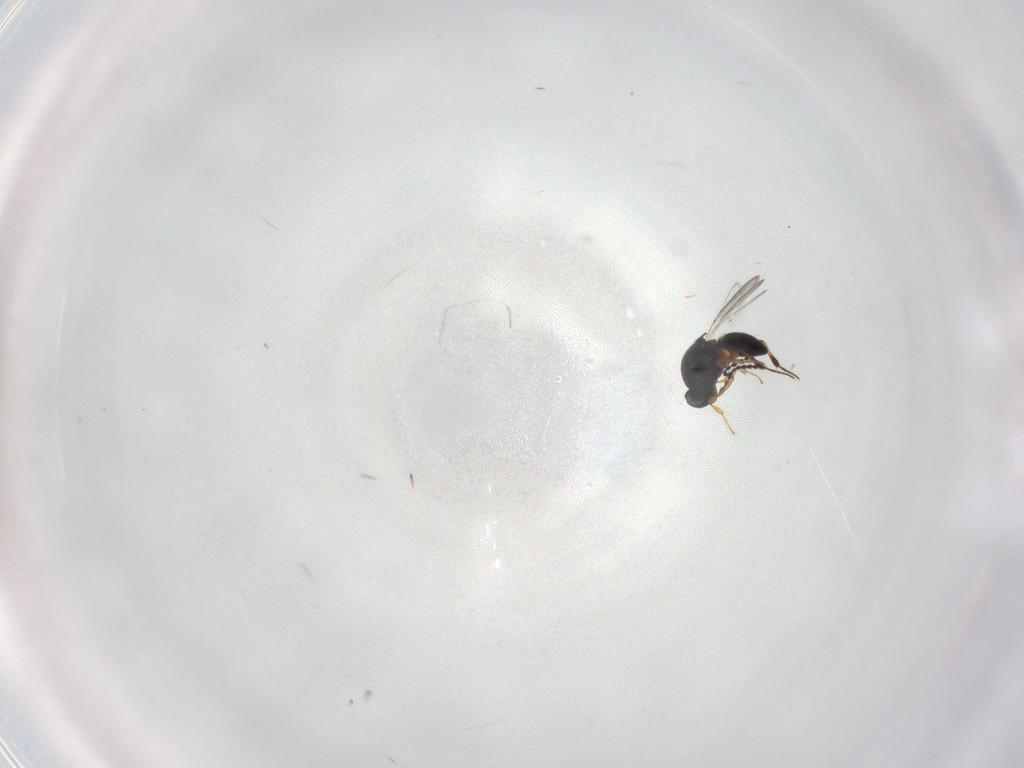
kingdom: Animalia
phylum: Arthropoda
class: Insecta
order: Hymenoptera
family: Platygastridae
